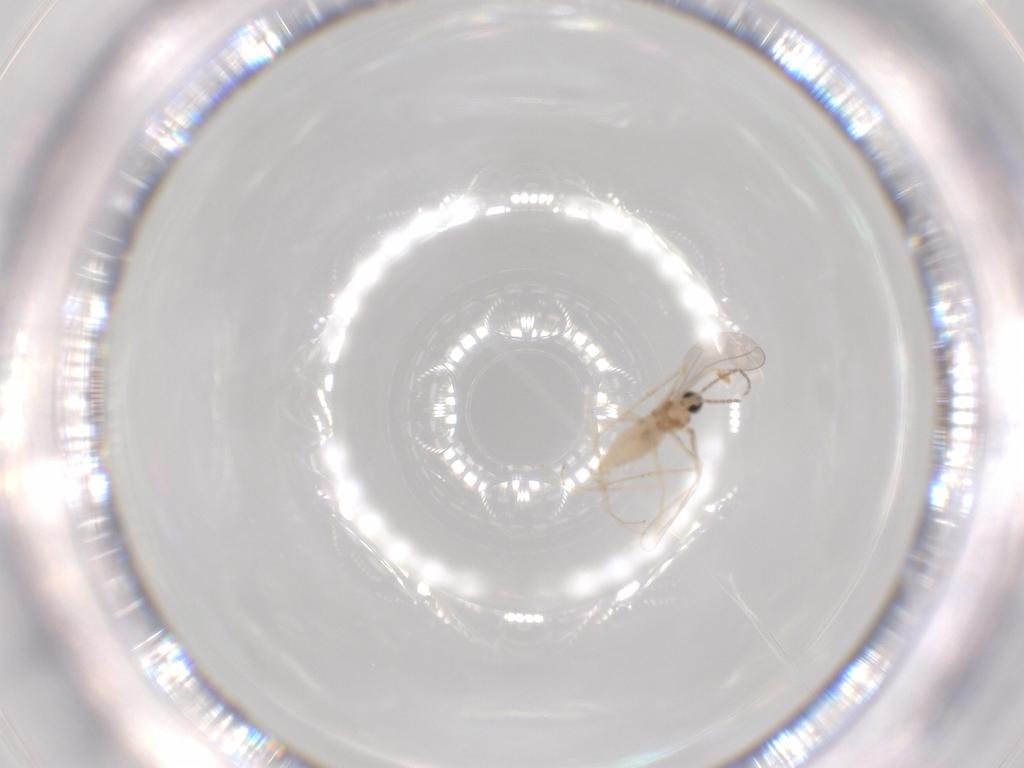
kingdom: Animalia
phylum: Arthropoda
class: Insecta
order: Diptera
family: Cecidomyiidae
